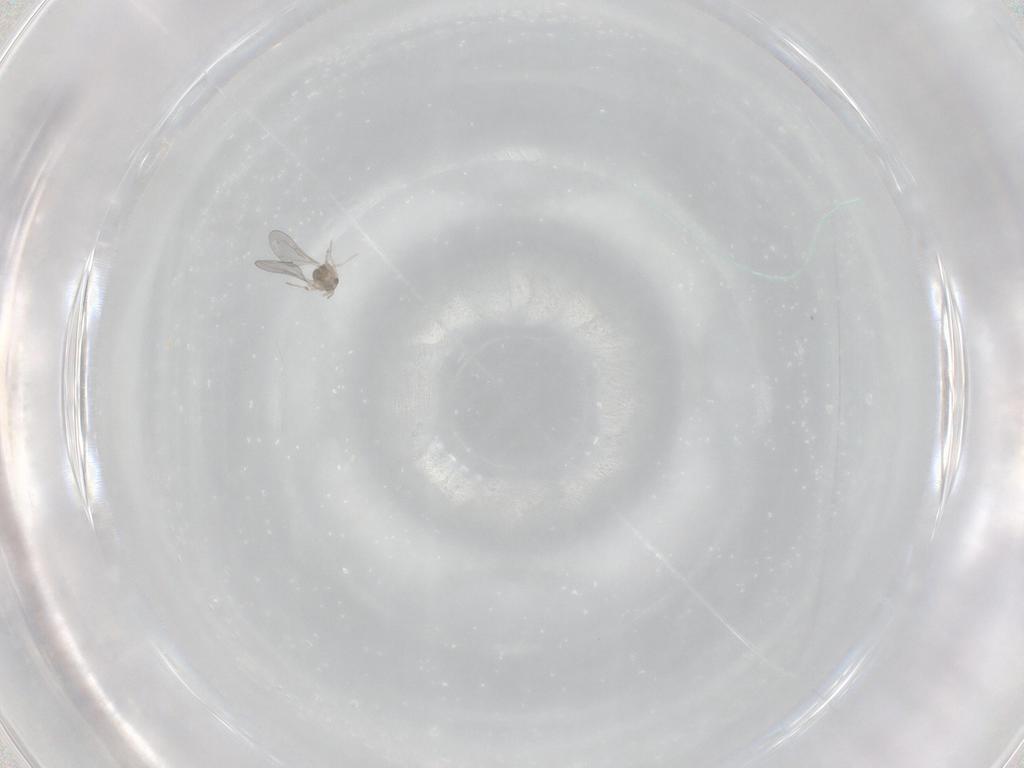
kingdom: Animalia
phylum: Arthropoda
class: Insecta
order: Diptera
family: Cecidomyiidae
